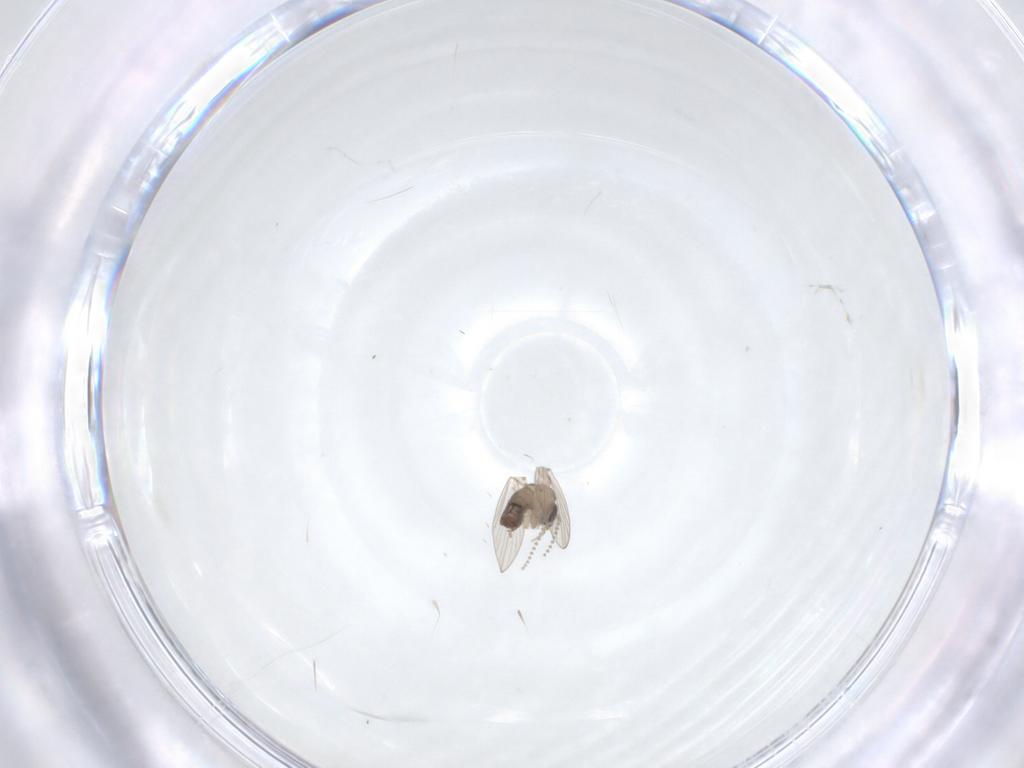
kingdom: Animalia
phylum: Arthropoda
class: Insecta
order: Diptera
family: Psychodidae
